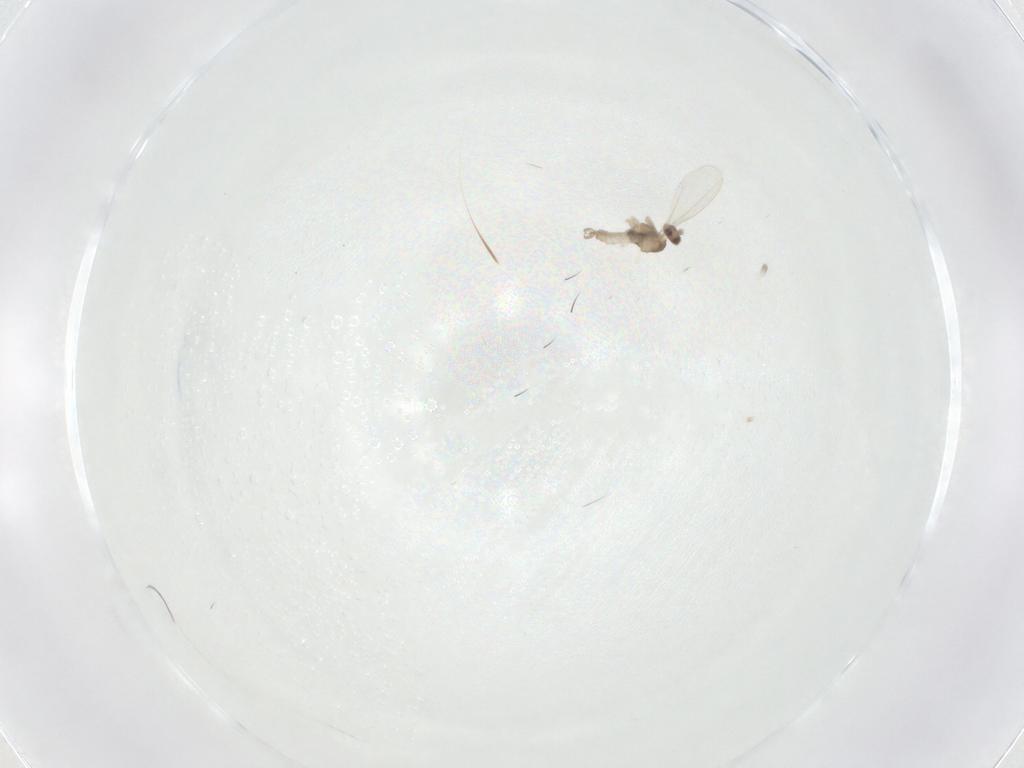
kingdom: Animalia
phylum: Arthropoda
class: Insecta
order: Diptera
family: Cecidomyiidae
